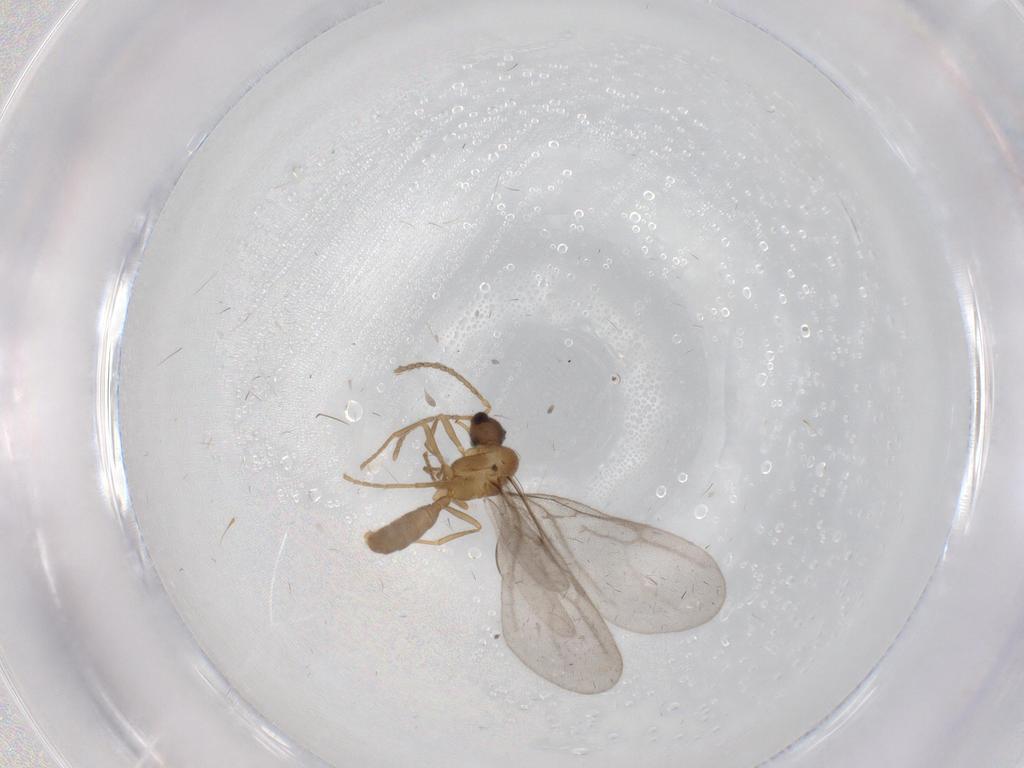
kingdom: Animalia
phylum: Arthropoda
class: Insecta
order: Hymenoptera
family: Formicidae
